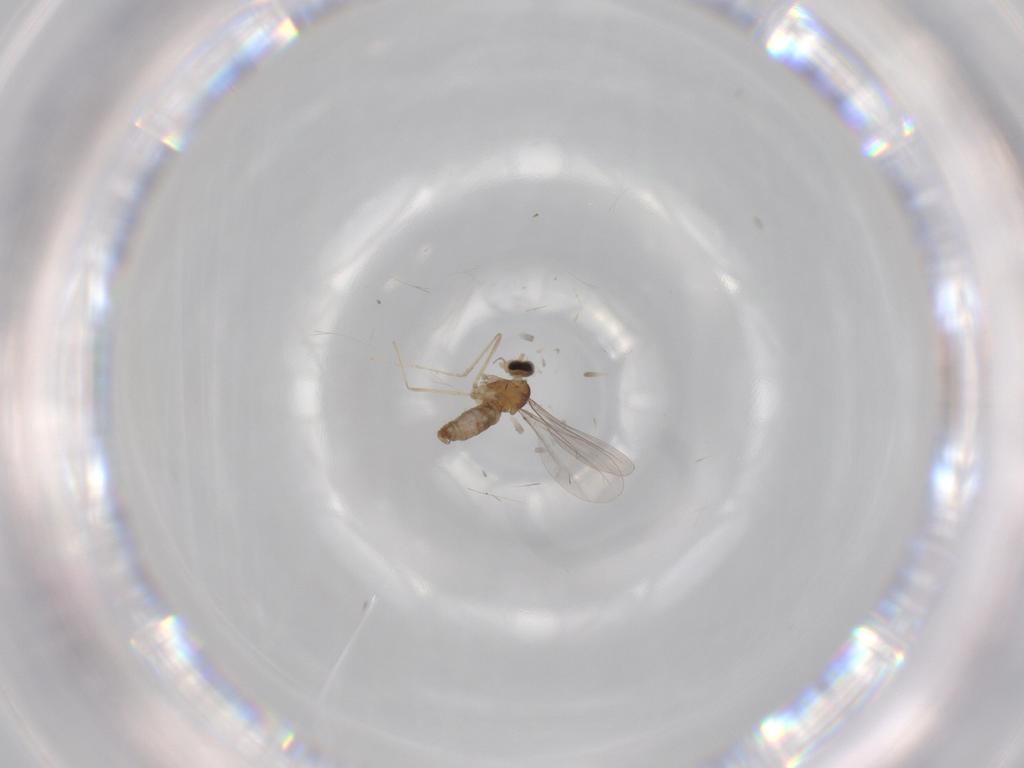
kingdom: Animalia
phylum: Arthropoda
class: Insecta
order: Diptera
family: Cecidomyiidae
